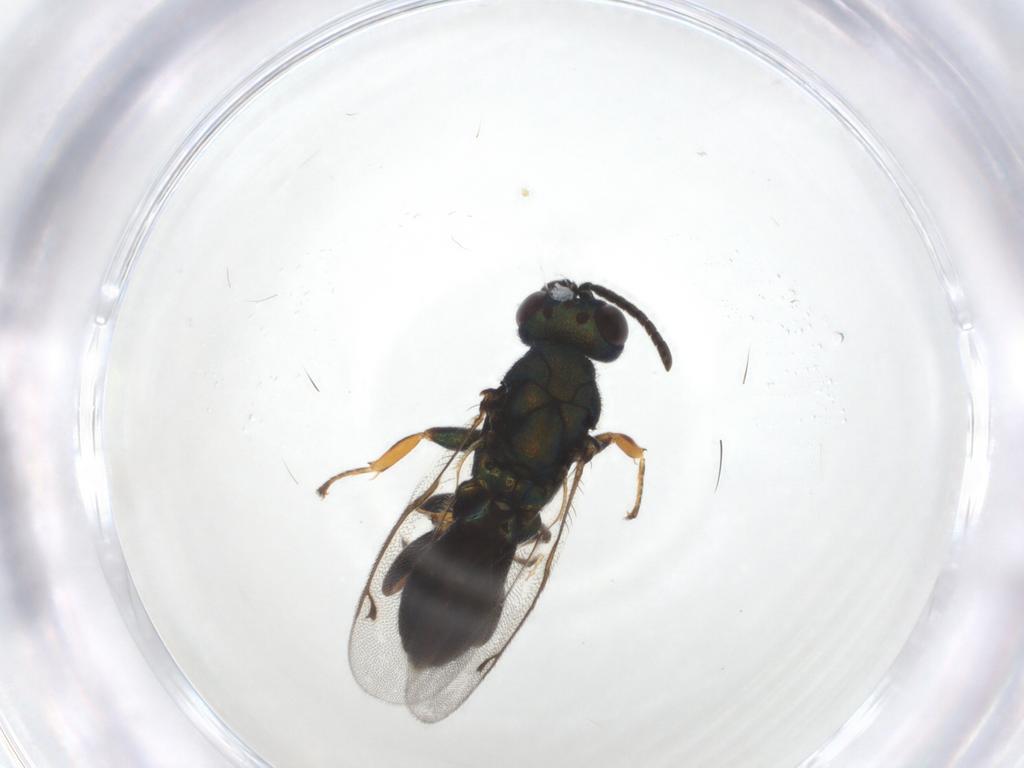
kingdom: Animalia
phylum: Arthropoda
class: Insecta
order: Hymenoptera
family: Eupelmidae
